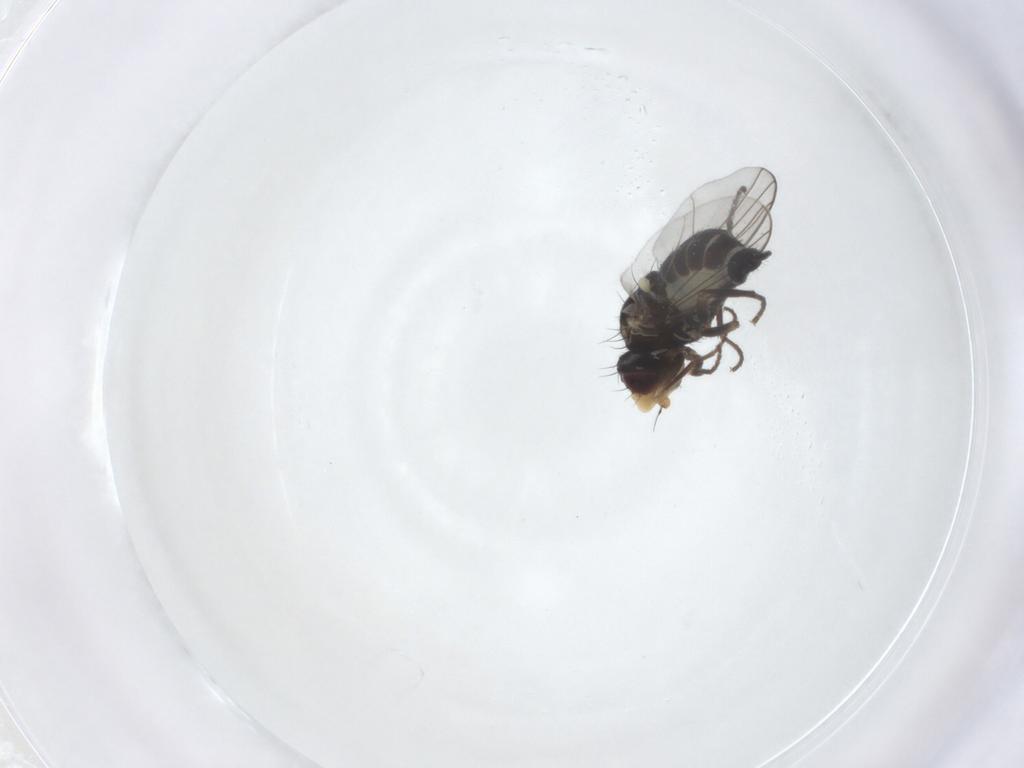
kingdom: Animalia
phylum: Arthropoda
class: Insecta
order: Diptera
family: Agromyzidae
